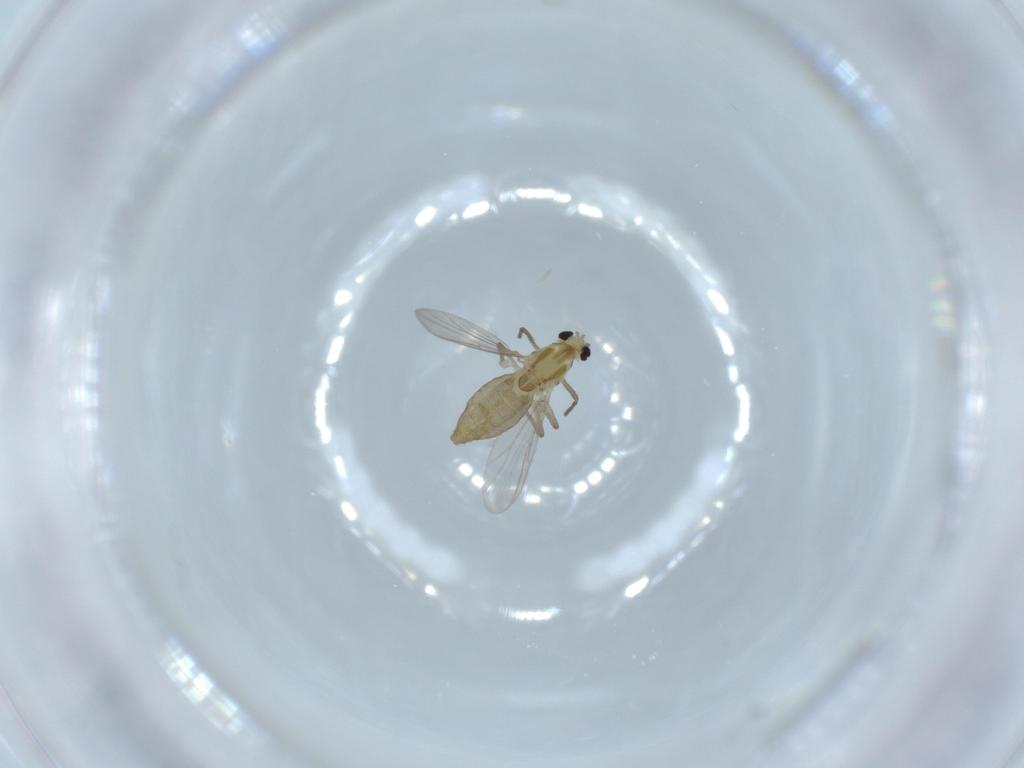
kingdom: Animalia
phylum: Arthropoda
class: Insecta
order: Diptera
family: Chironomidae
